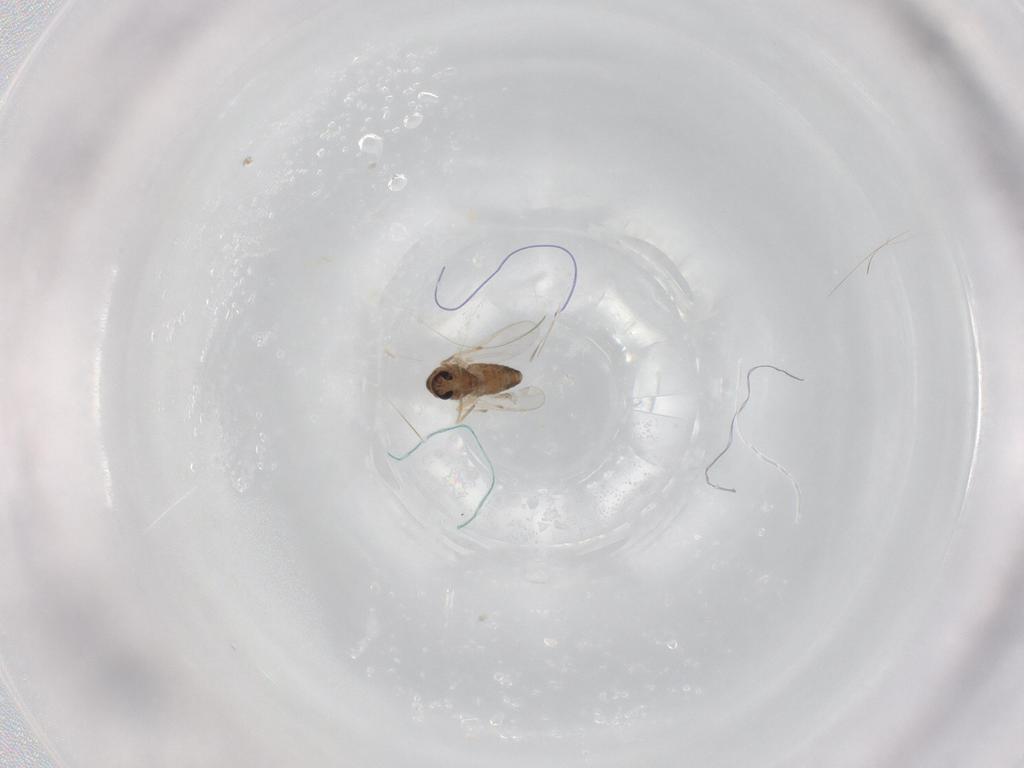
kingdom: Animalia
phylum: Arthropoda
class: Insecta
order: Diptera
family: Chironomidae
